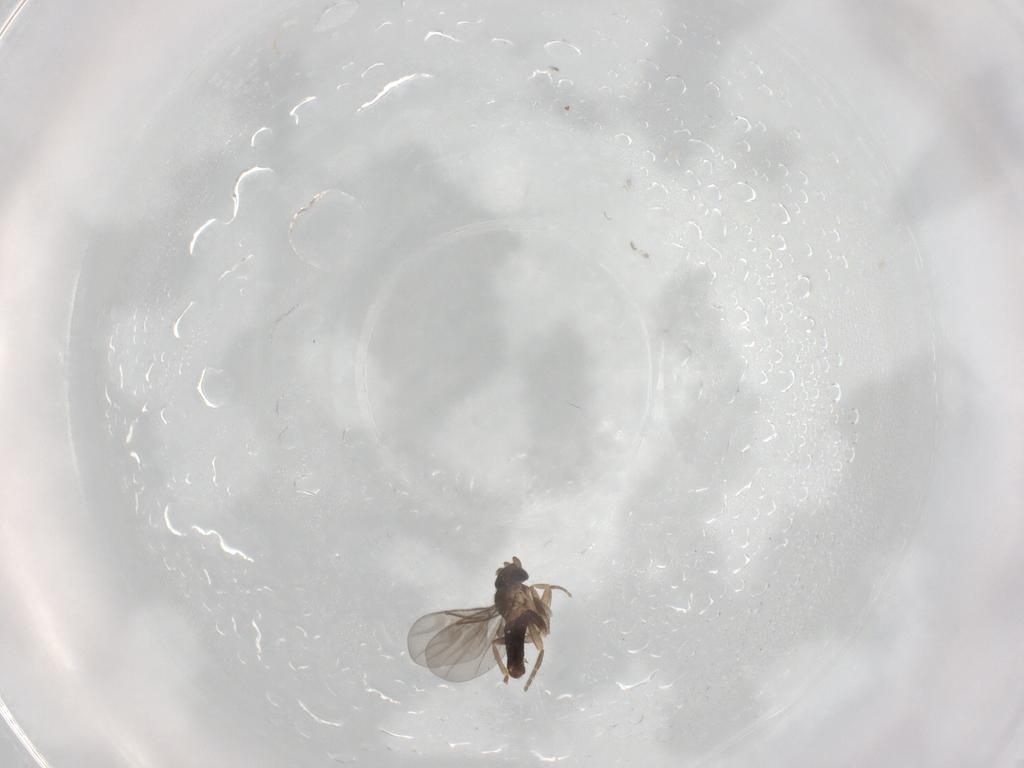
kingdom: Animalia
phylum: Arthropoda
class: Insecta
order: Diptera
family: Phoridae
